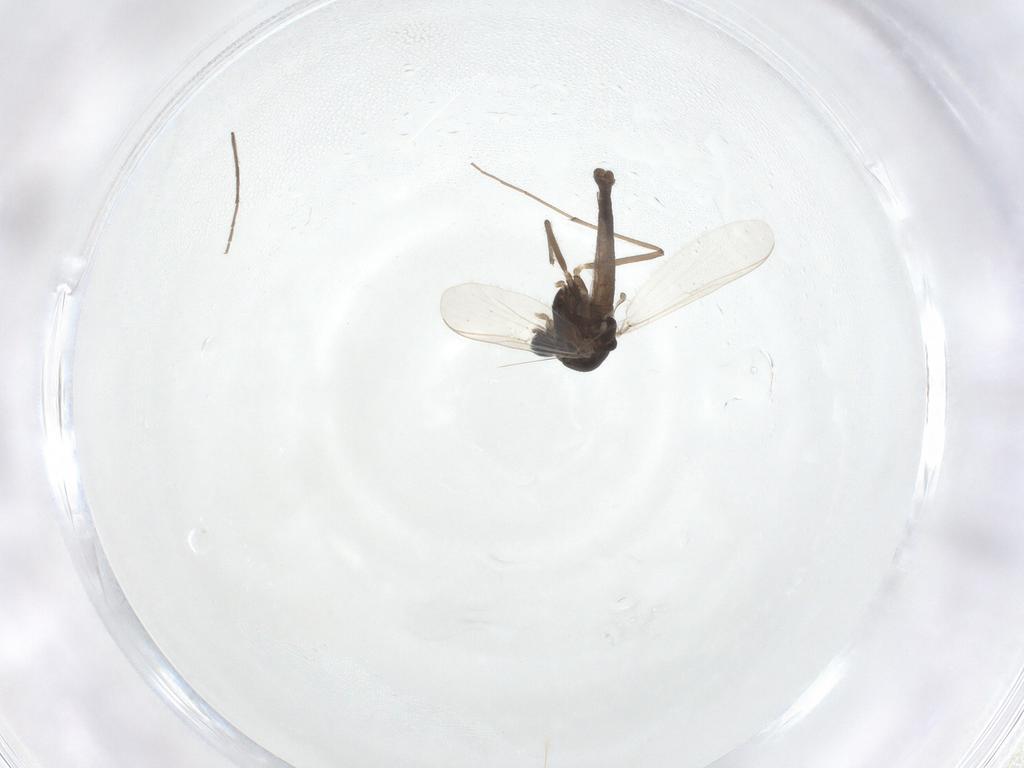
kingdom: Animalia
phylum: Arthropoda
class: Insecta
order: Diptera
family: Chironomidae
